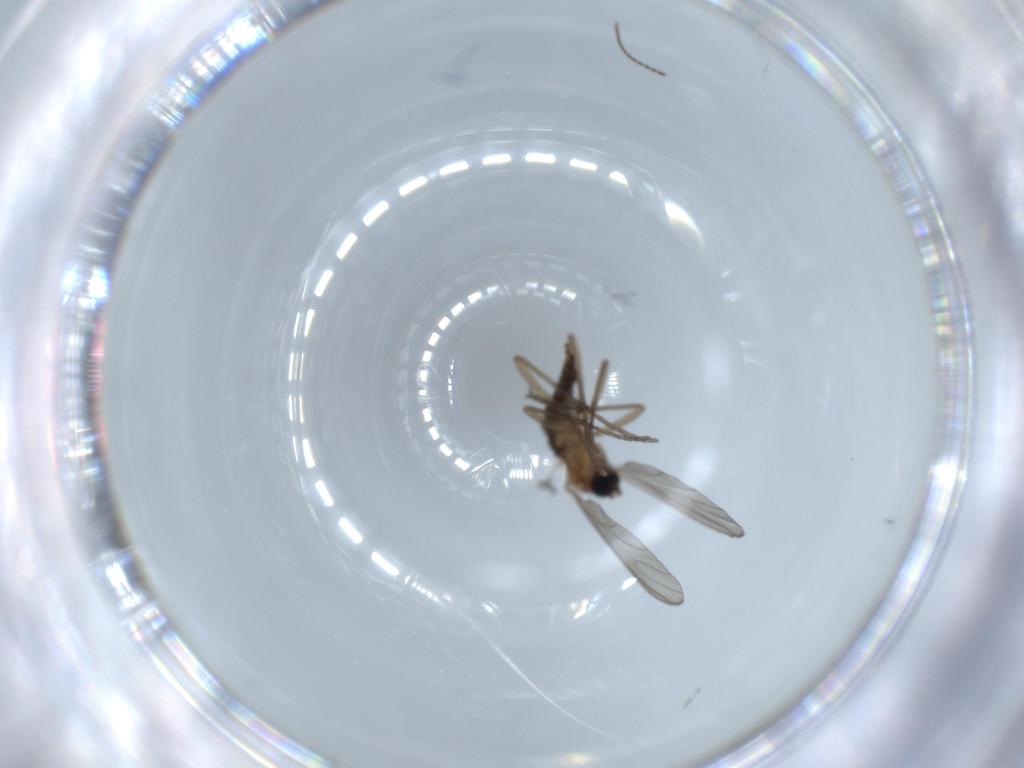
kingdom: Animalia
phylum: Arthropoda
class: Insecta
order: Diptera
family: Sciaridae
